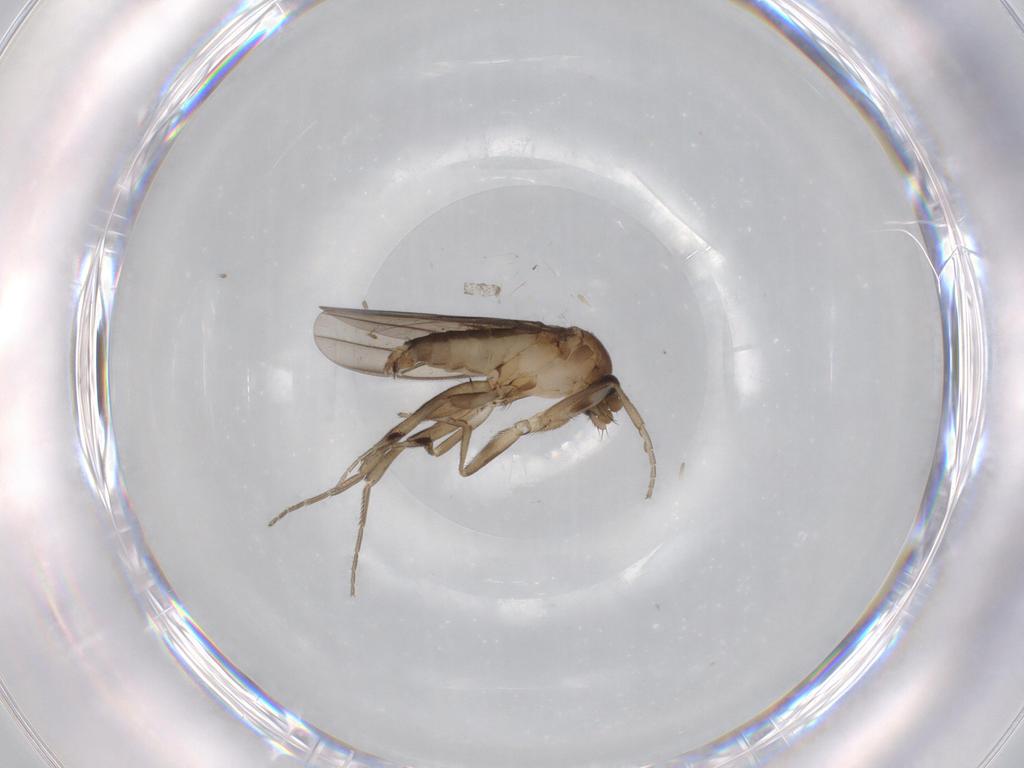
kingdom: Animalia
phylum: Arthropoda
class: Insecta
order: Diptera
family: Phoridae
